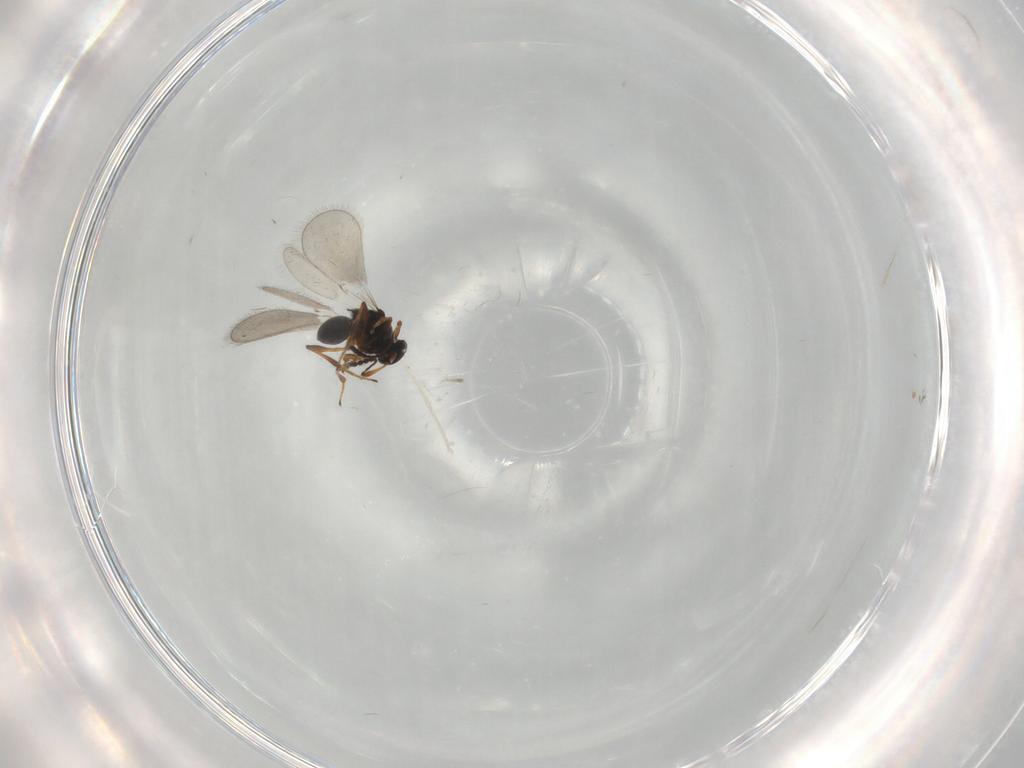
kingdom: Animalia
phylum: Arthropoda
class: Insecta
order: Hymenoptera
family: Platygastridae
